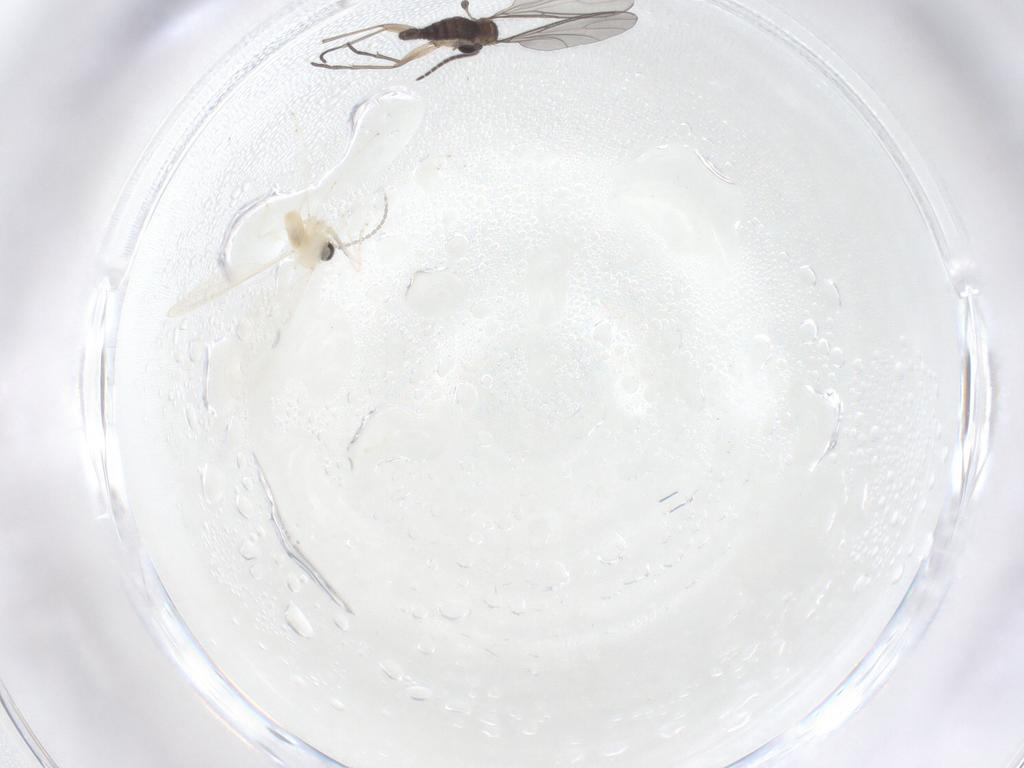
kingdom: Animalia
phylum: Arthropoda
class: Insecta
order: Diptera
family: Sciaridae
